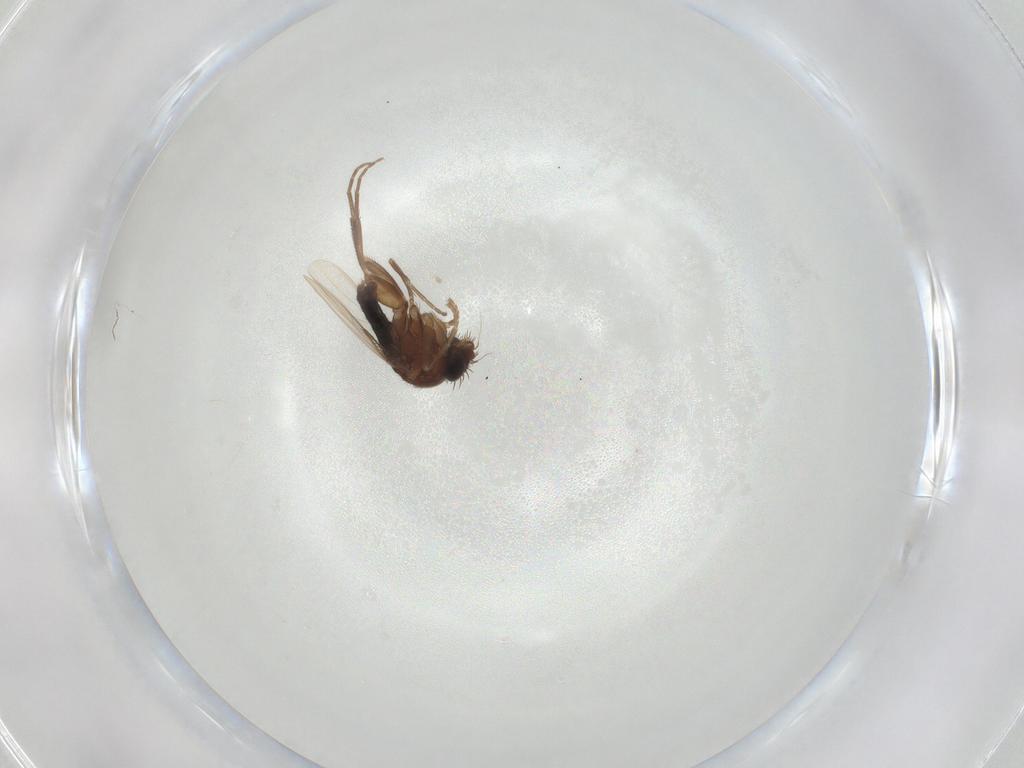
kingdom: Animalia
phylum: Arthropoda
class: Insecta
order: Diptera
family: Phoridae
